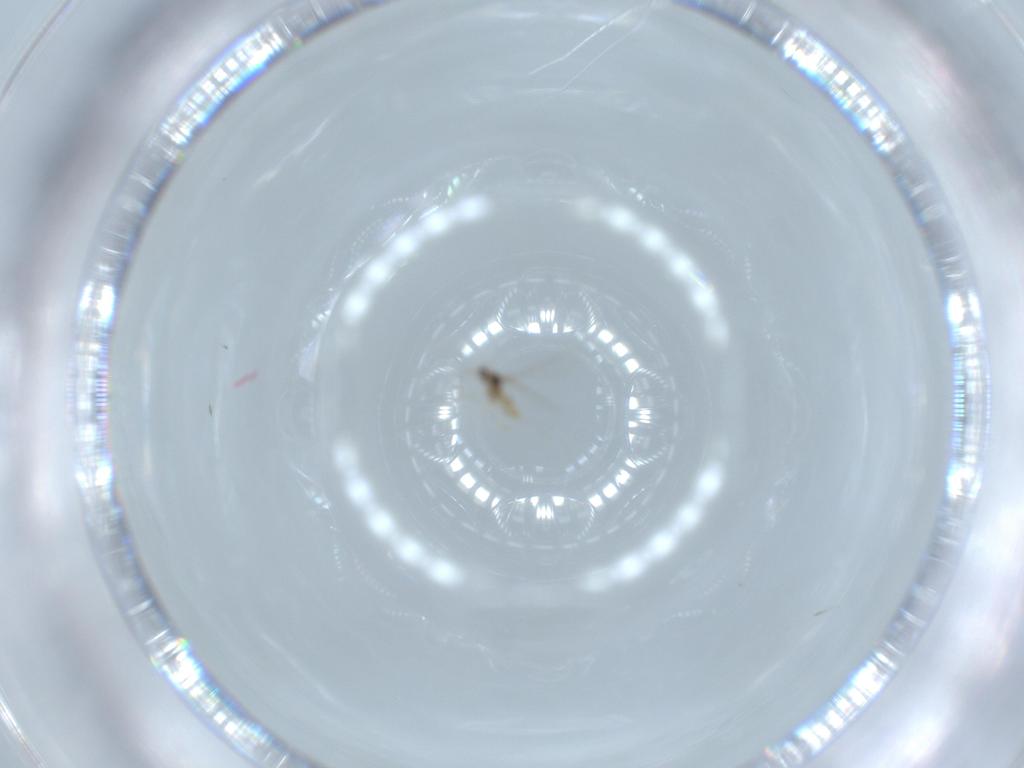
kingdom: Animalia
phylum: Arthropoda
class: Insecta
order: Diptera
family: Cecidomyiidae
